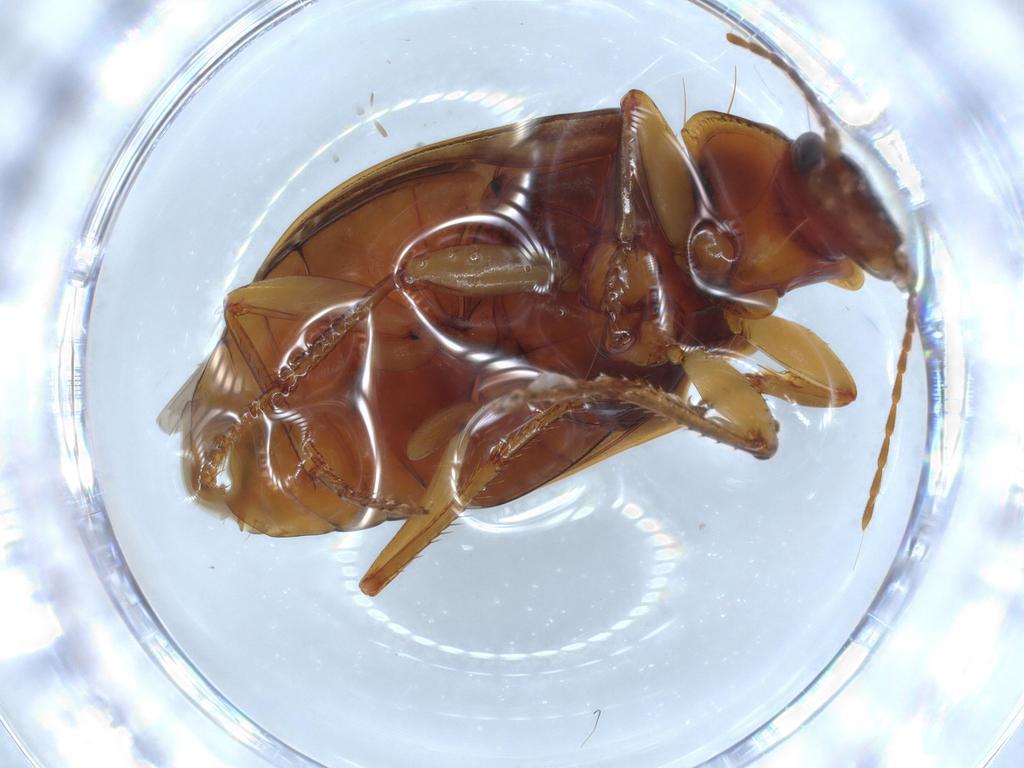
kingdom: Animalia
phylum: Arthropoda
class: Insecta
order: Coleoptera
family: Carabidae
